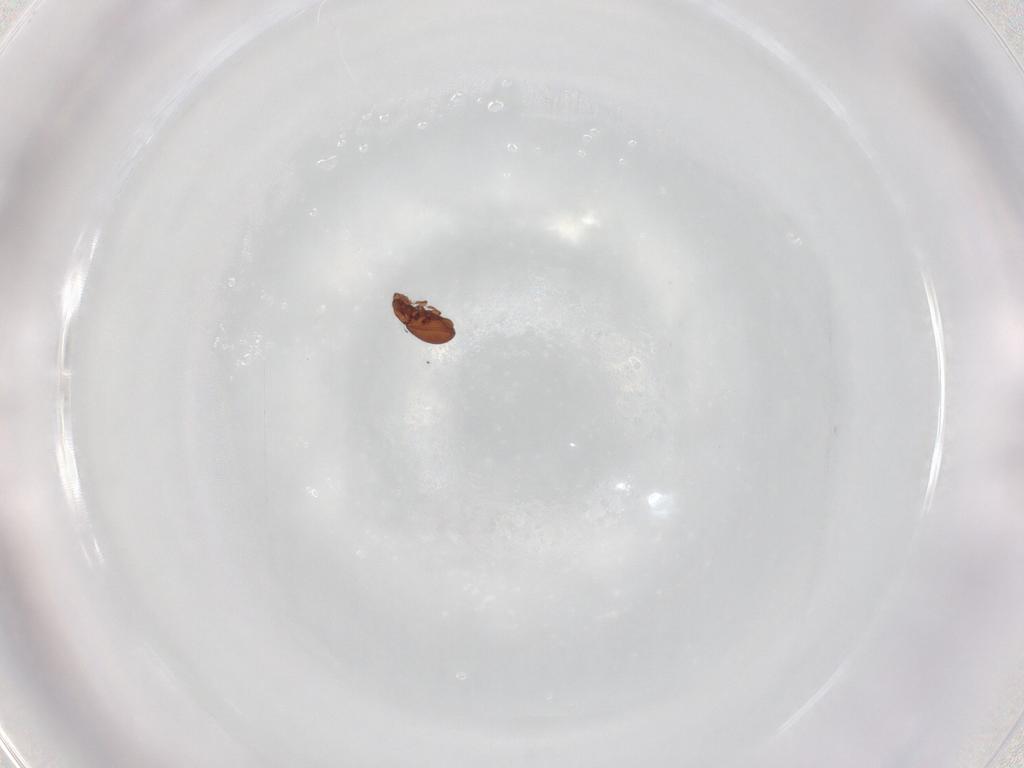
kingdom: Animalia
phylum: Arthropoda
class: Arachnida
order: Sarcoptiformes
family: Eremaeidae
